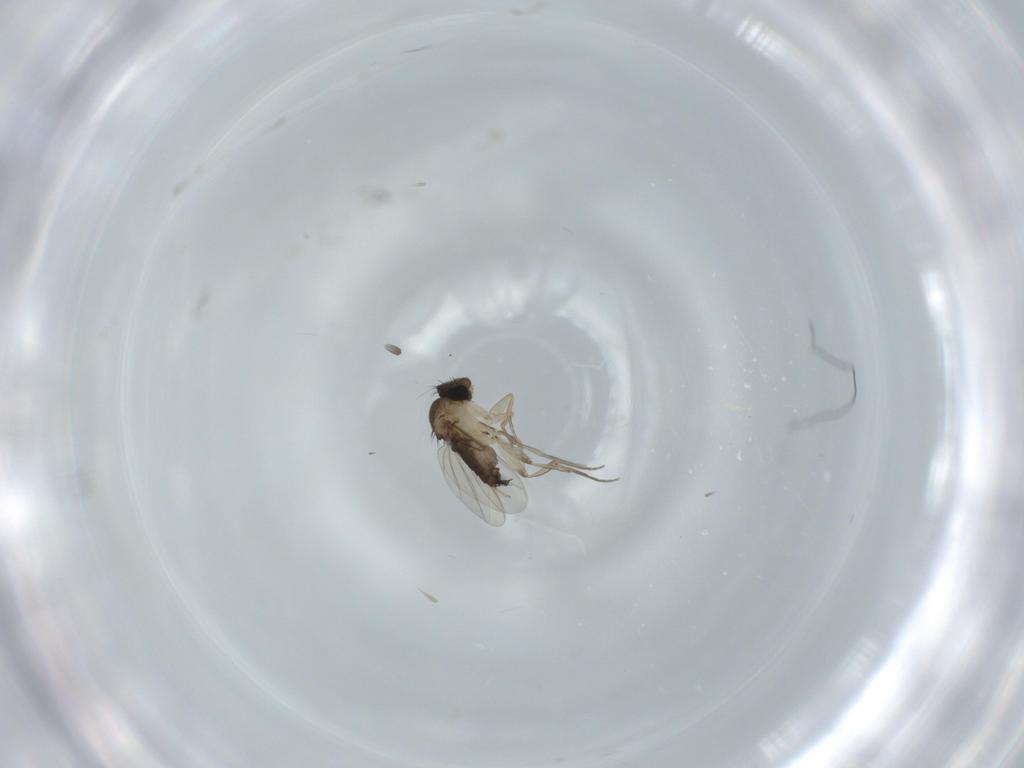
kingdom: Animalia
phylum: Arthropoda
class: Insecta
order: Diptera
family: Phoridae
